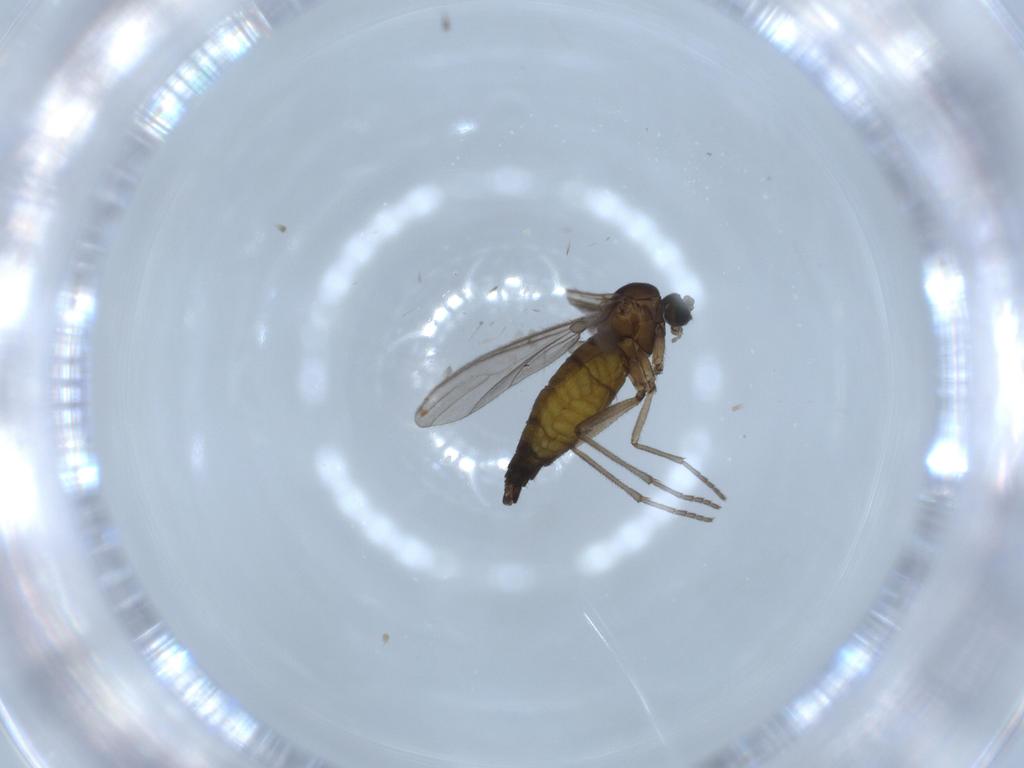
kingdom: Animalia
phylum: Arthropoda
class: Insecta
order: Diptera
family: Sciaridae
